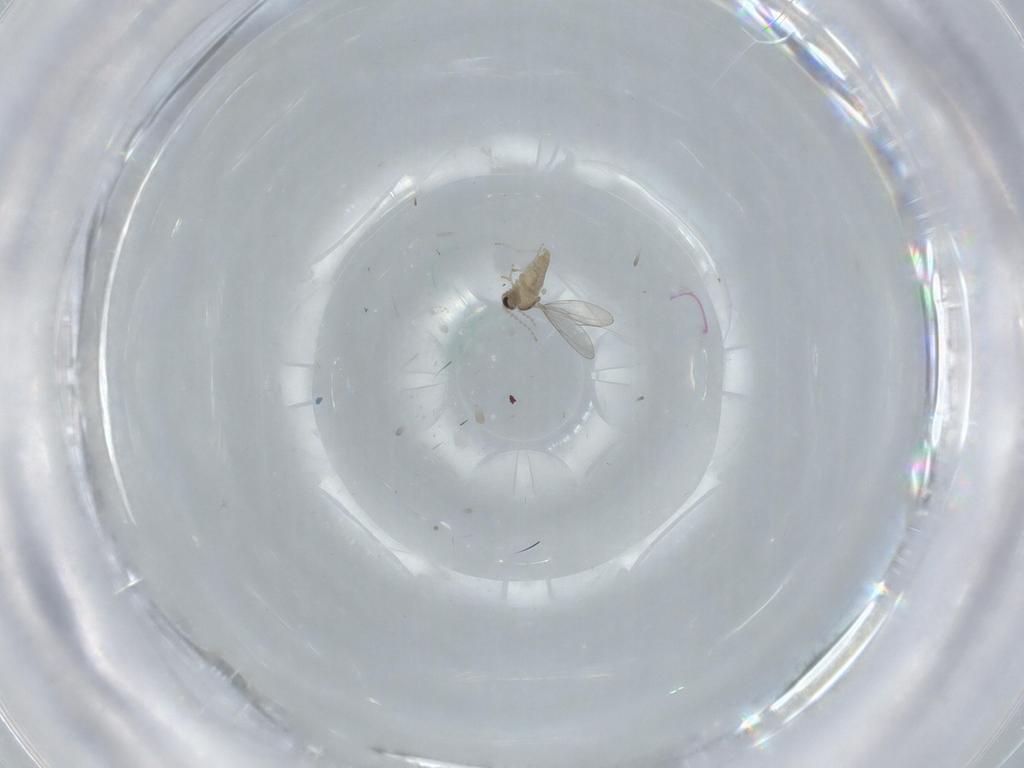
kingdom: Animalia
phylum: Arthropoda
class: Insecta
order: Diptera
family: Cecidomyiidae
